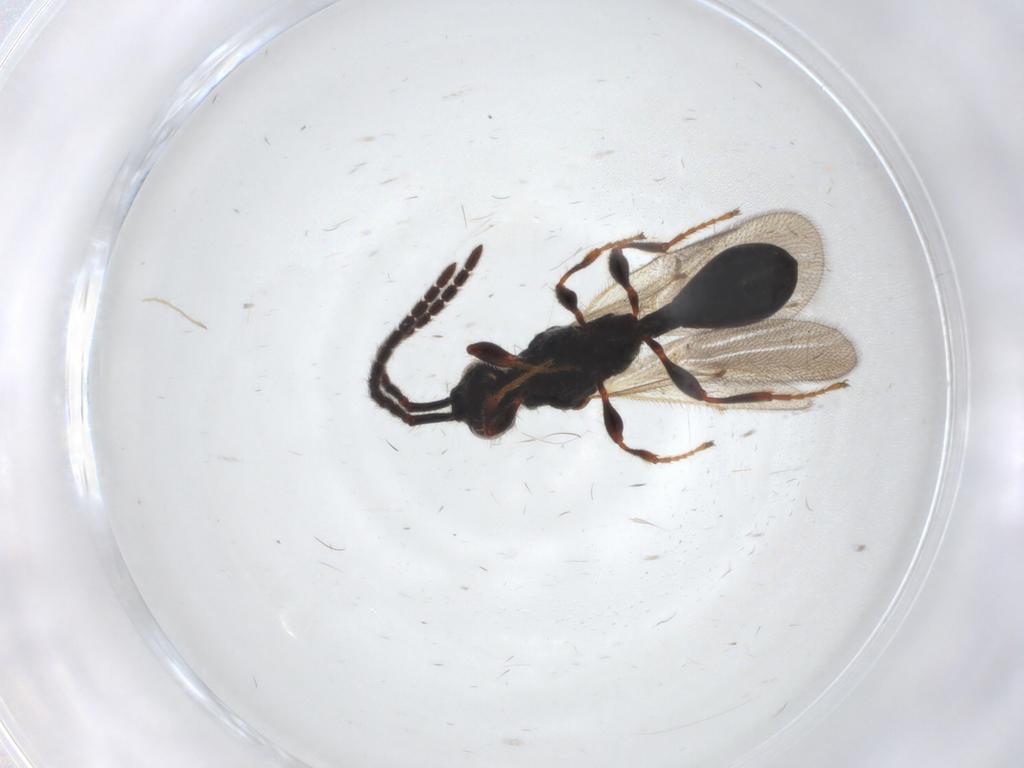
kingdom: Animalia
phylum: Arthropoda
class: Insecta
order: Hymenoptera
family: Diapriidae
